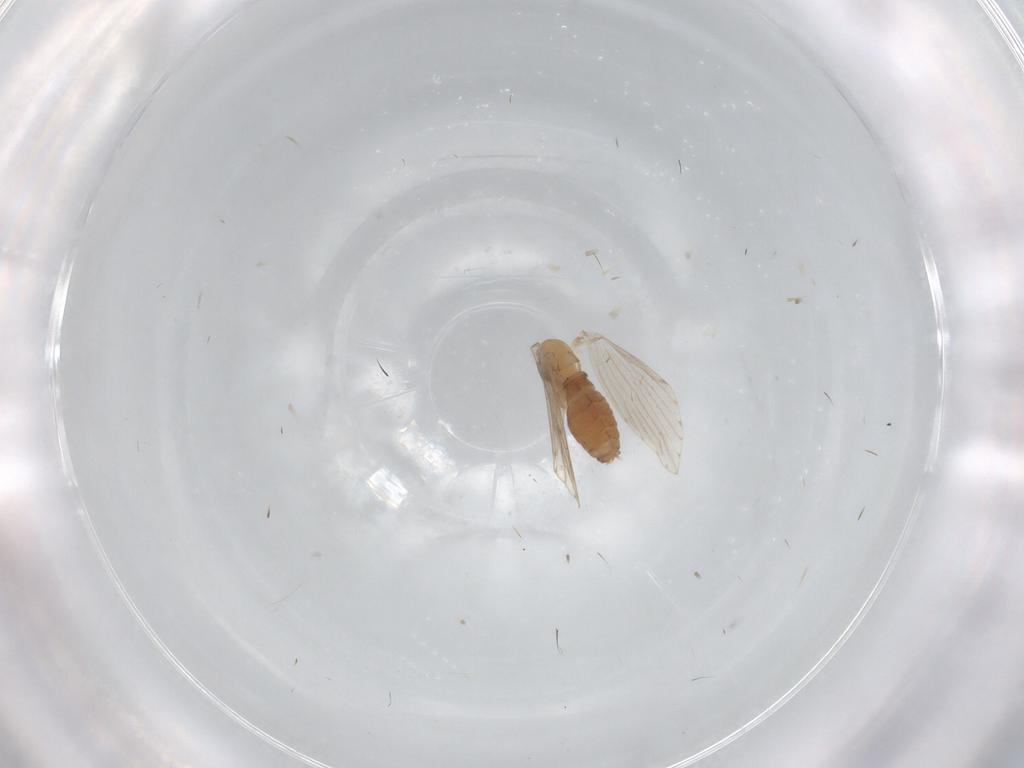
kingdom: Animalia
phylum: Arthropoda
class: Insecta
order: Diptera
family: Psychodidae
